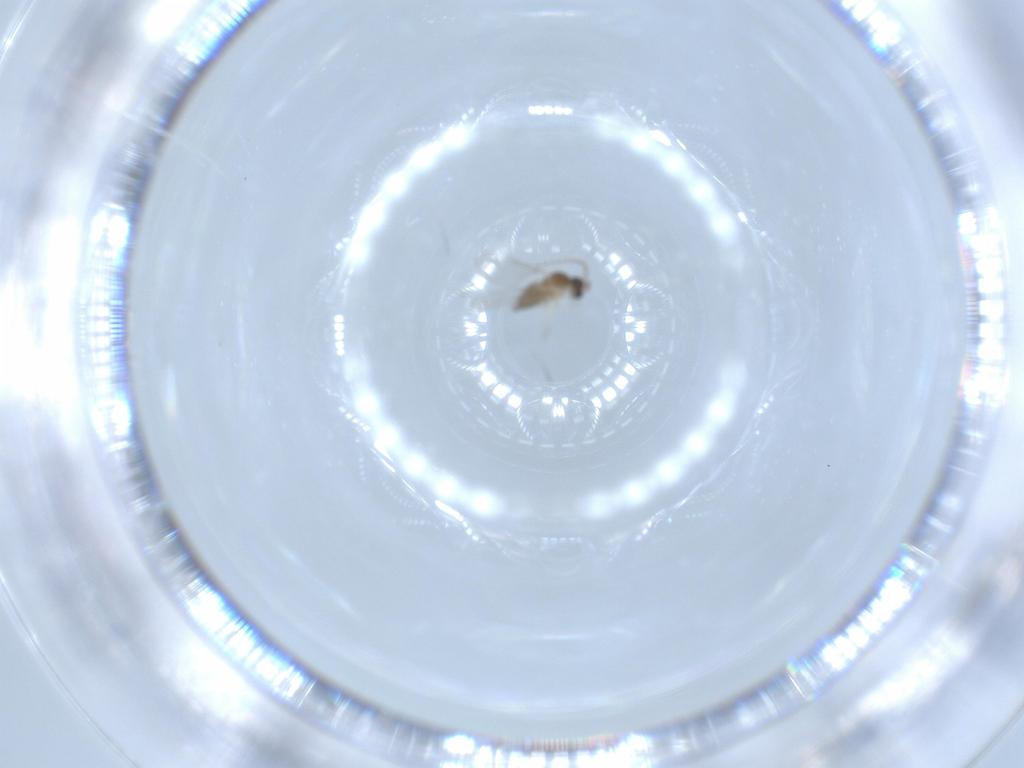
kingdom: Animalia
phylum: Arthropoda
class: Insecta
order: Diptera
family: Cecidomyiidae
